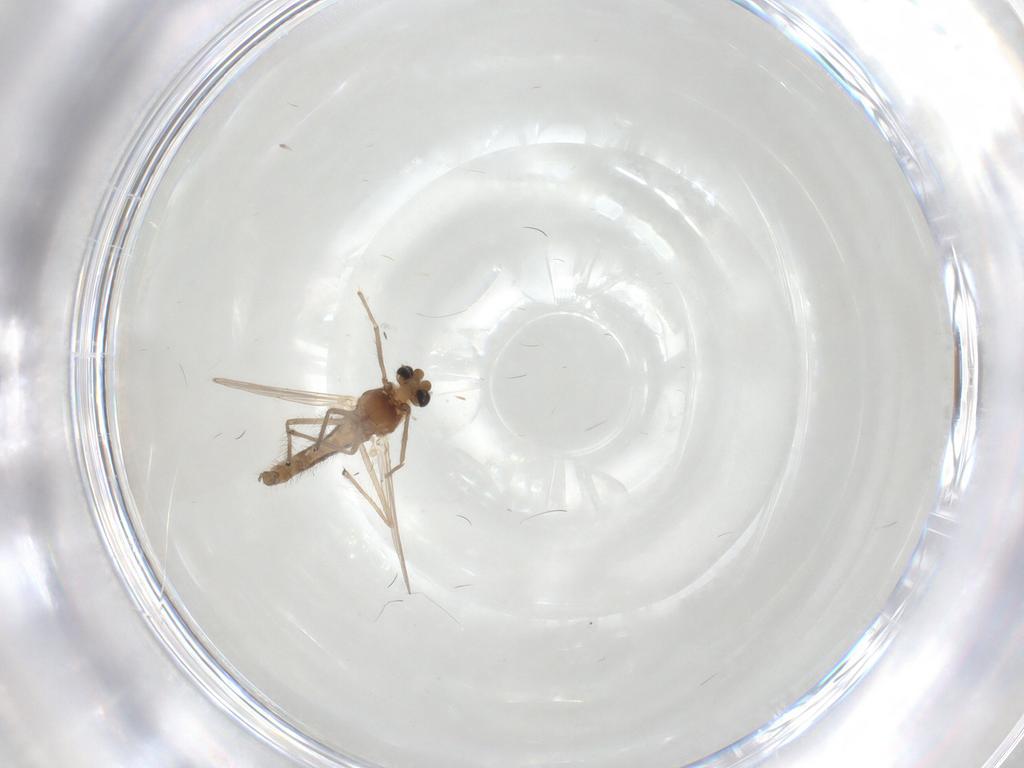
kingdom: Animalia
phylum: Arthropoda
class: Insecta
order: Diptera
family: Chironomidae
